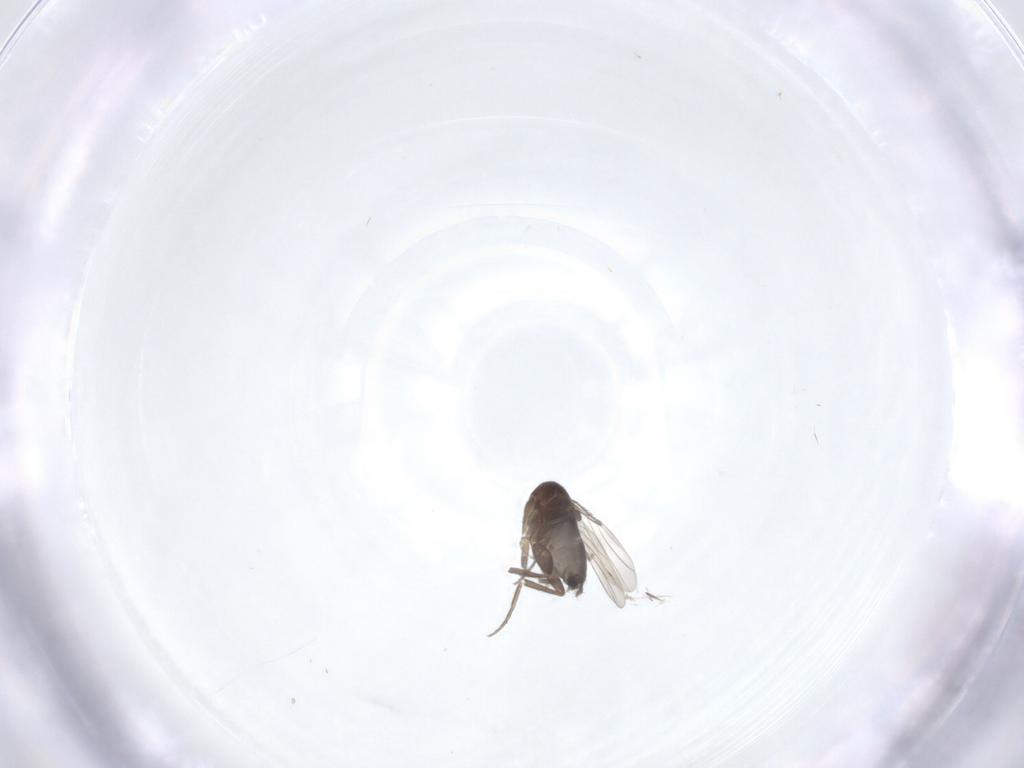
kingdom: Animalia
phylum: Arthropoda
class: Insecta
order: Diptera
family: Phoridae
